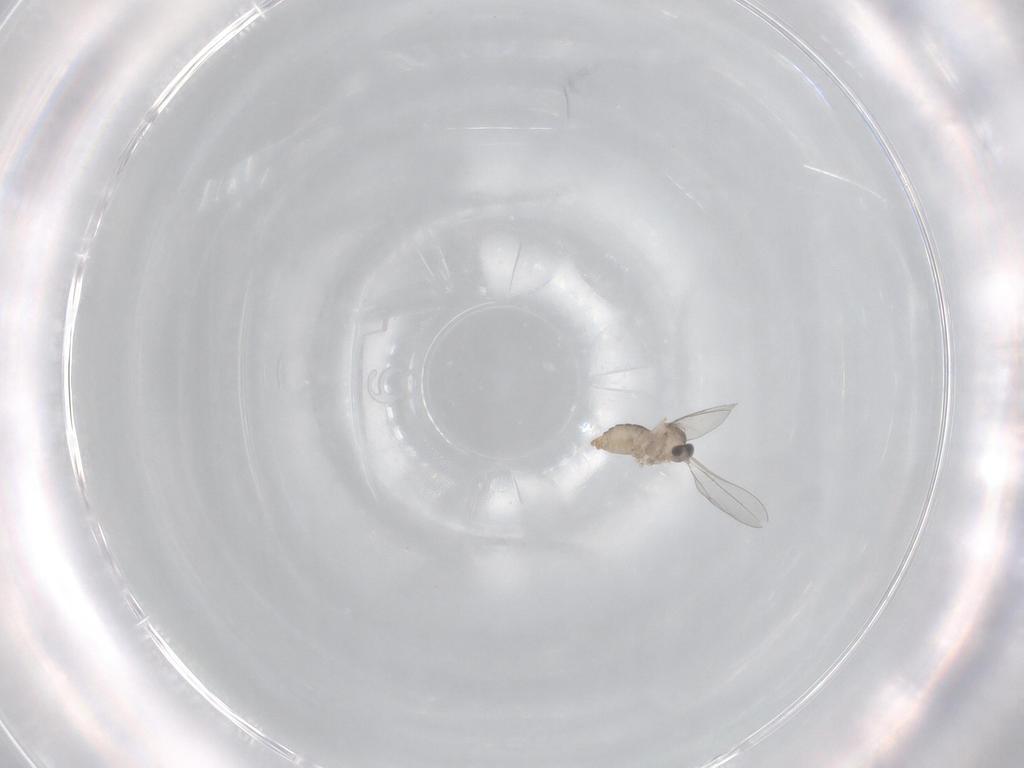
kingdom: Animalia
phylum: Arthropoda
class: Insecta
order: Diptera
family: Cecidomyiidae
